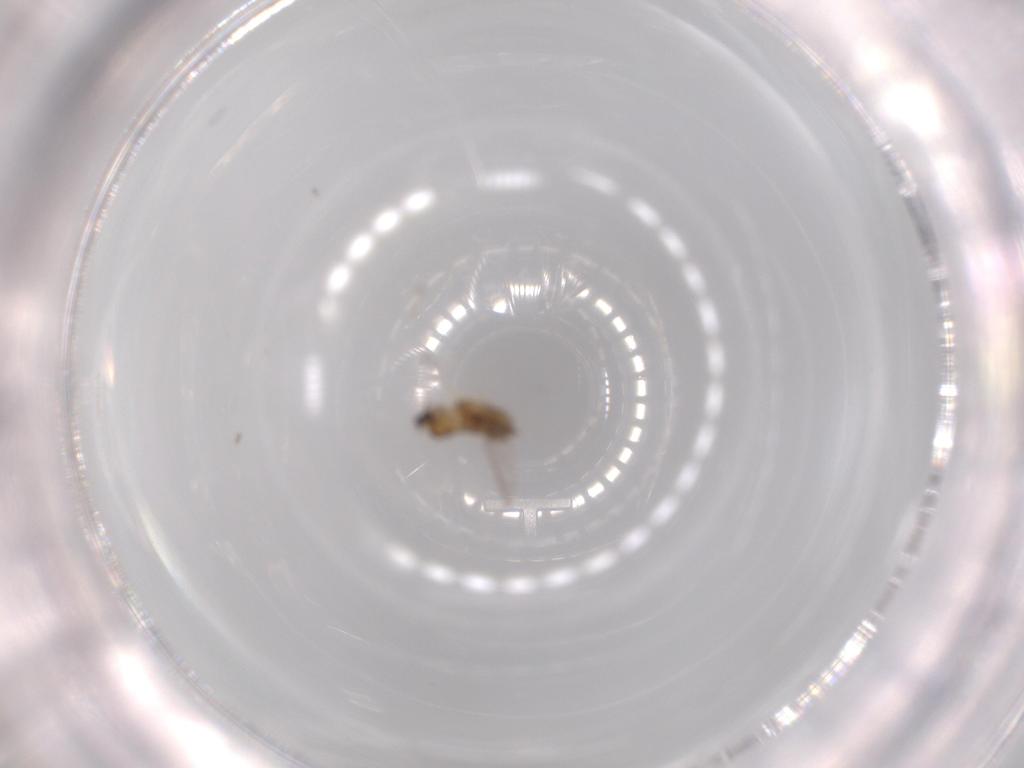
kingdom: Animalia
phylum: Arthropoda
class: Insecta
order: Diptera
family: Cecidomyiidae
